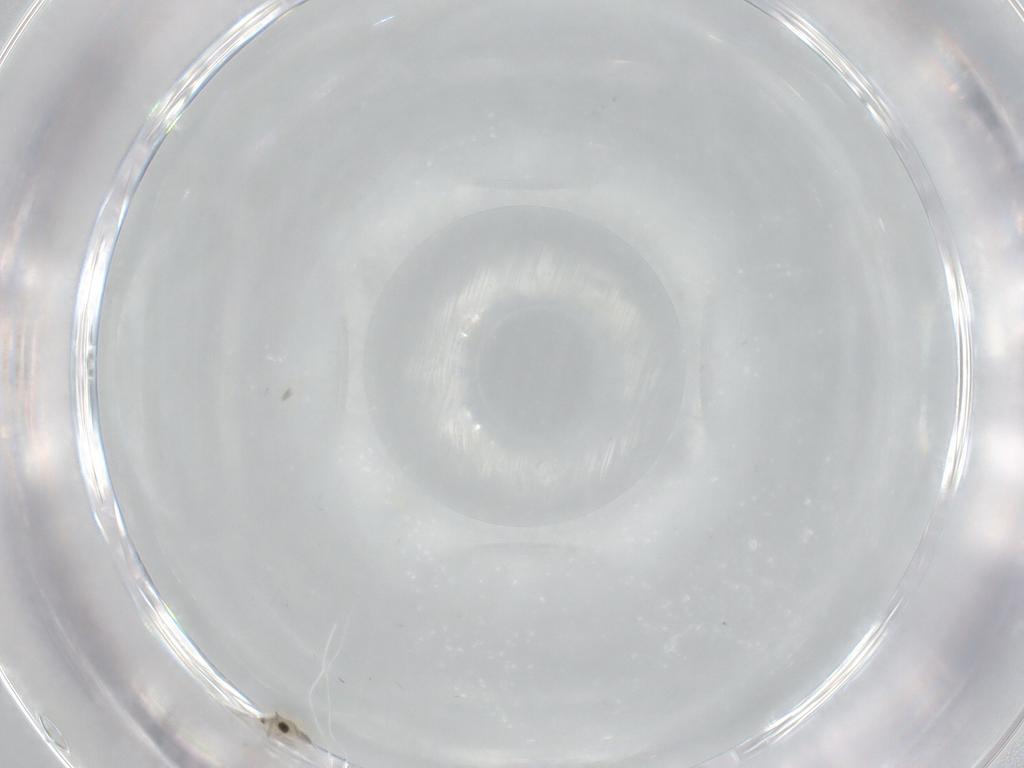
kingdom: Animalia
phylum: Arthropoda
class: Insecta
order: Hymenoptera
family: Aphelinidae
